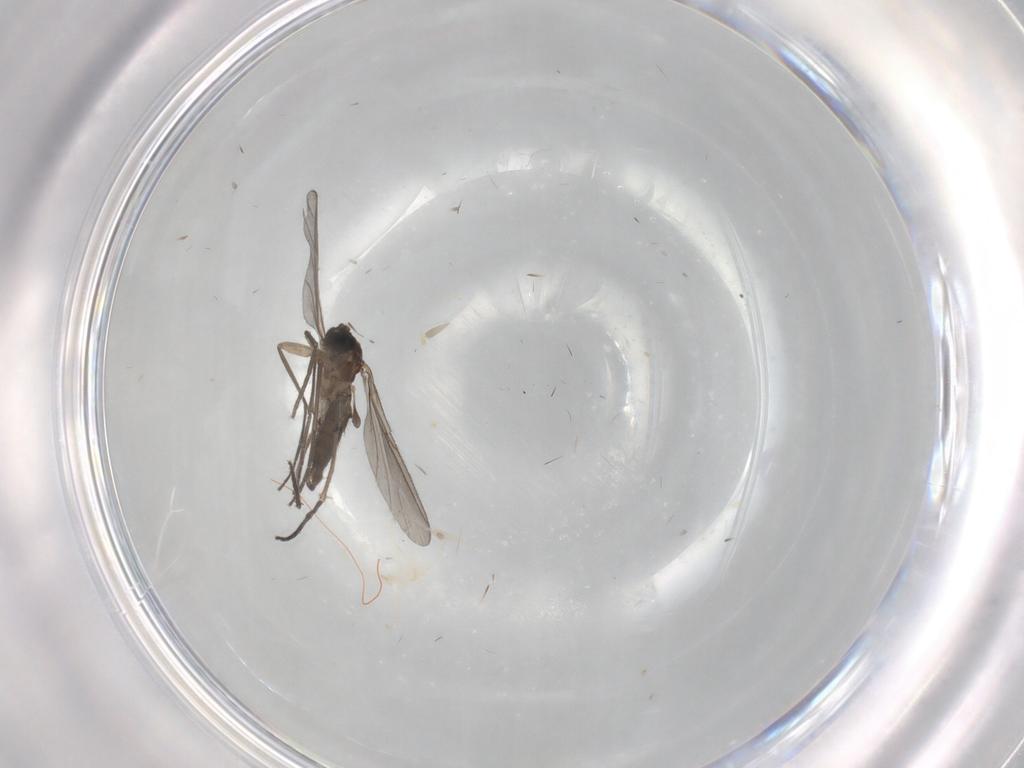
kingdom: Animalia
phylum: Arthropoda
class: Insecta
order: Diptera
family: Sciaridae
